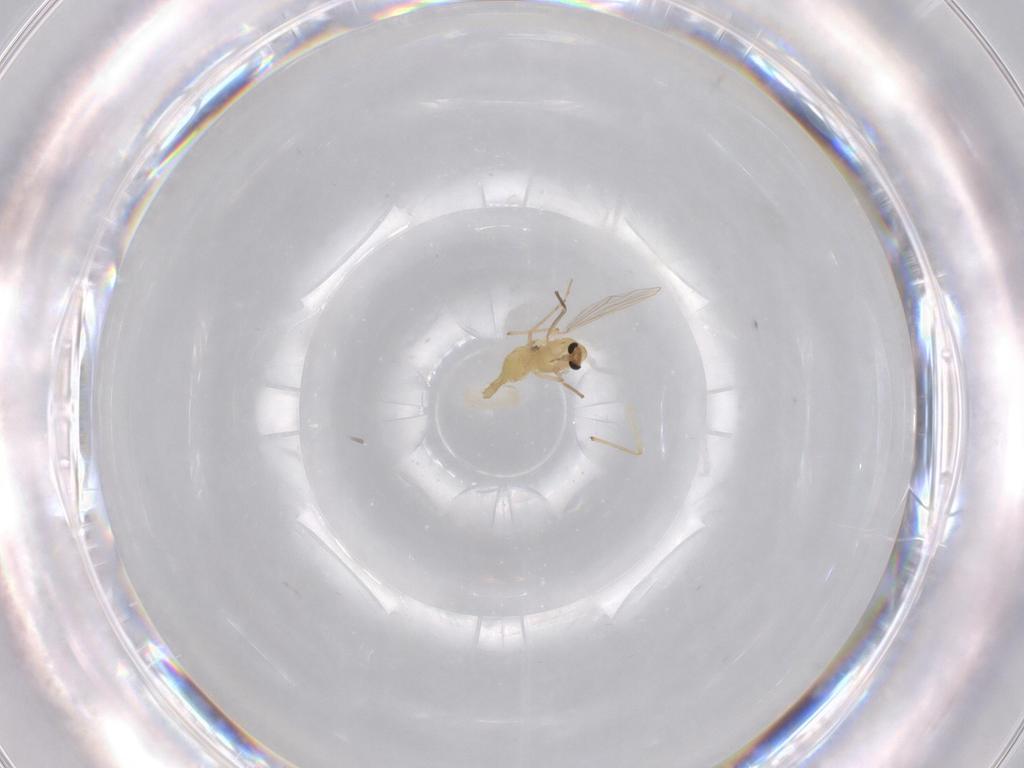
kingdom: Animalia
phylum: Arthropoda
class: Insecta
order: Diptera
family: Phoridae
